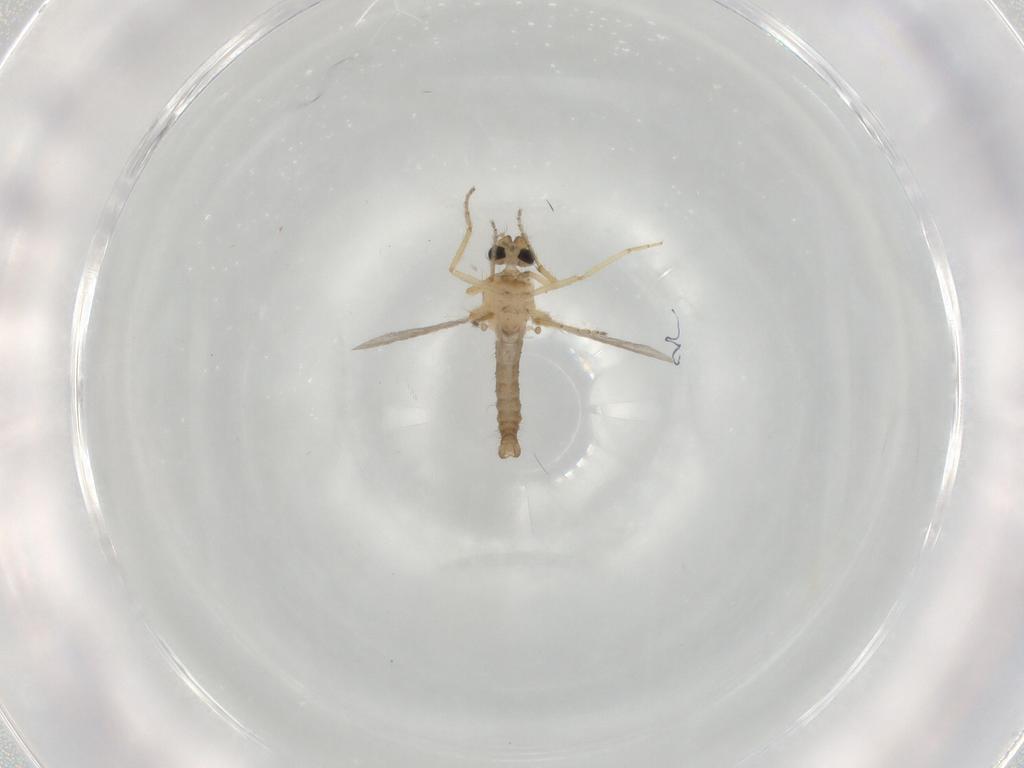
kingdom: Animalia
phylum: Arthropoda
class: Insecta
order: Diptera
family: Ceratopogonidae
